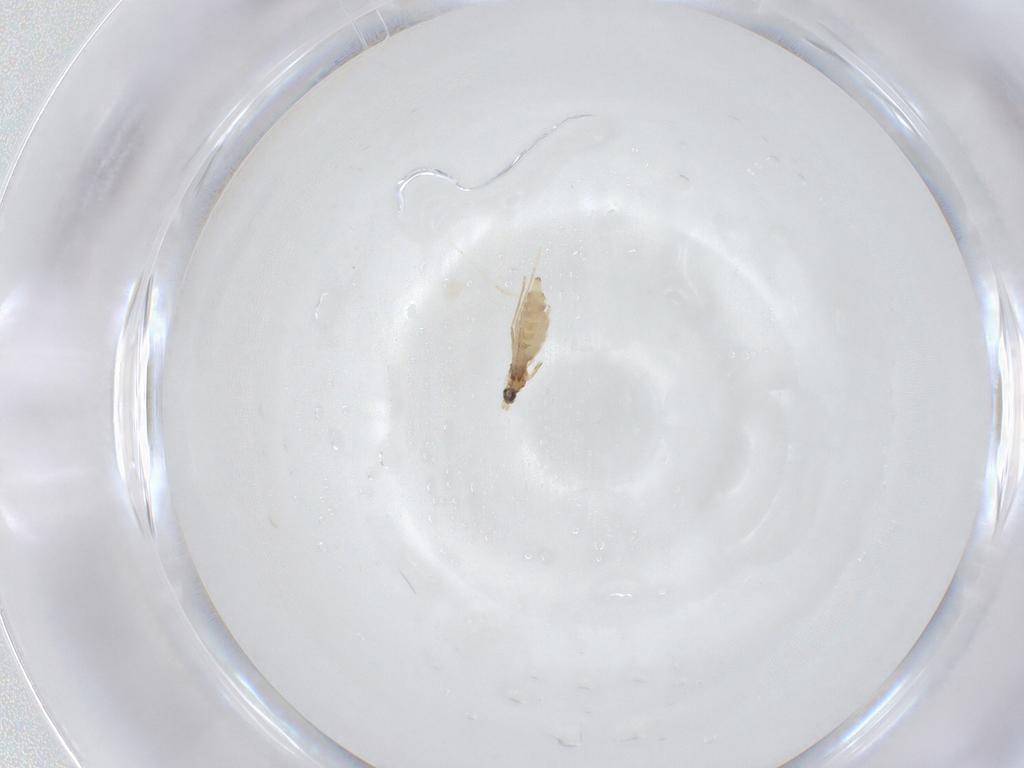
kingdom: Animalia
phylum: Arthropoda
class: Insecta
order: Diptera
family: Cecidomyiidae
